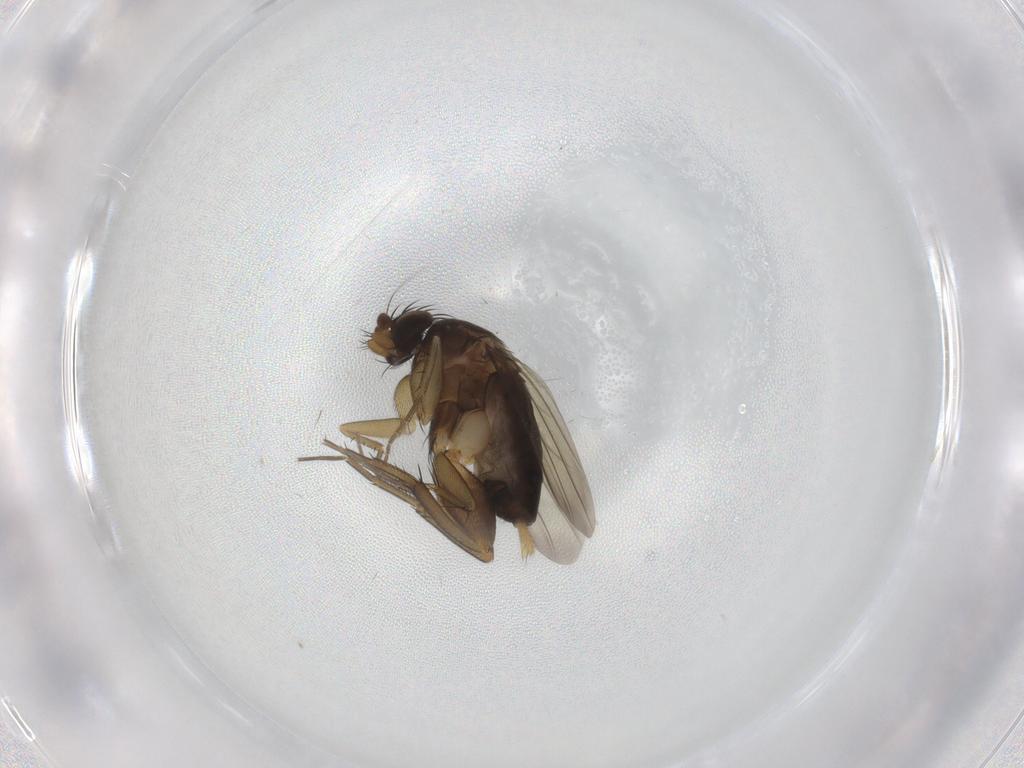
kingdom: Animalia
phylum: Arthropoda
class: Insecta
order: Diptera
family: Phoridae
